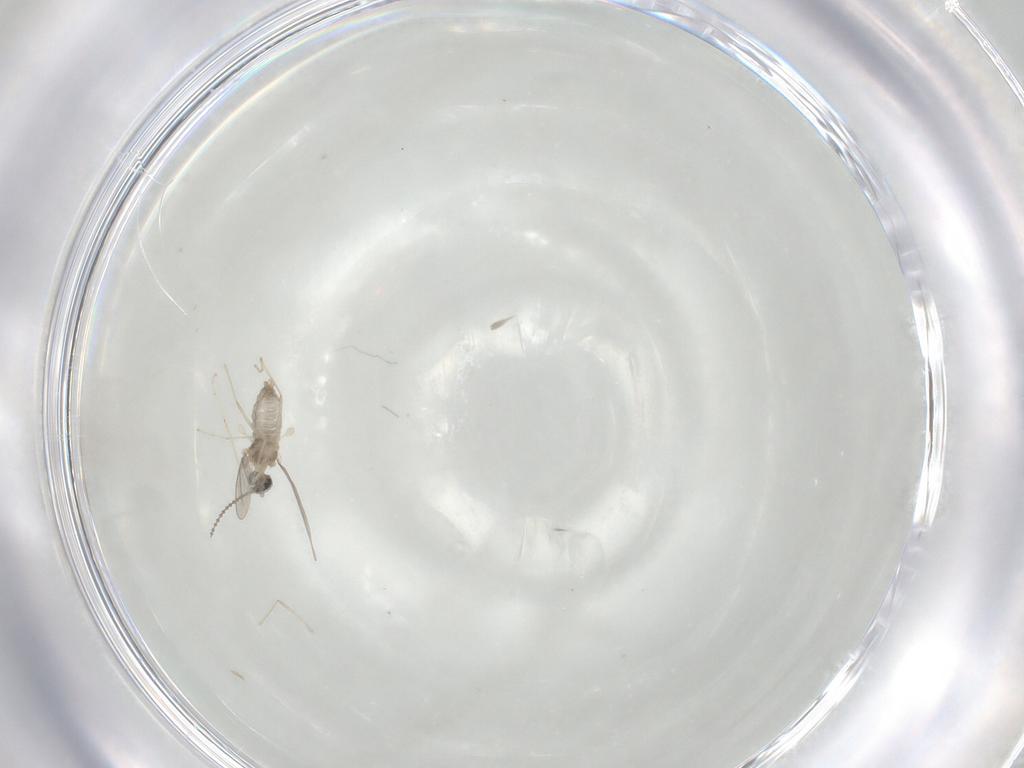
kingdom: Animalia
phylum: Arthropoda
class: Insecta
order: Diptera
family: Cecidomyiidae
